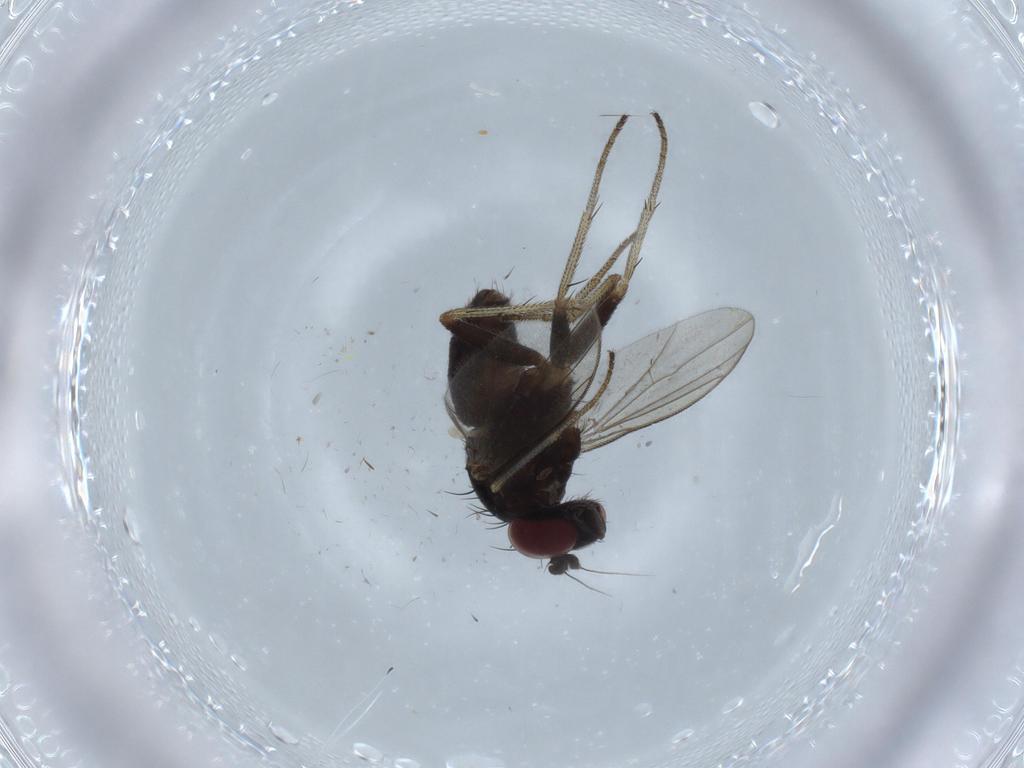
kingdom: Animalia
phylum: Arthropoda
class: Insecta
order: Diptera
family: Dolichopodidae
